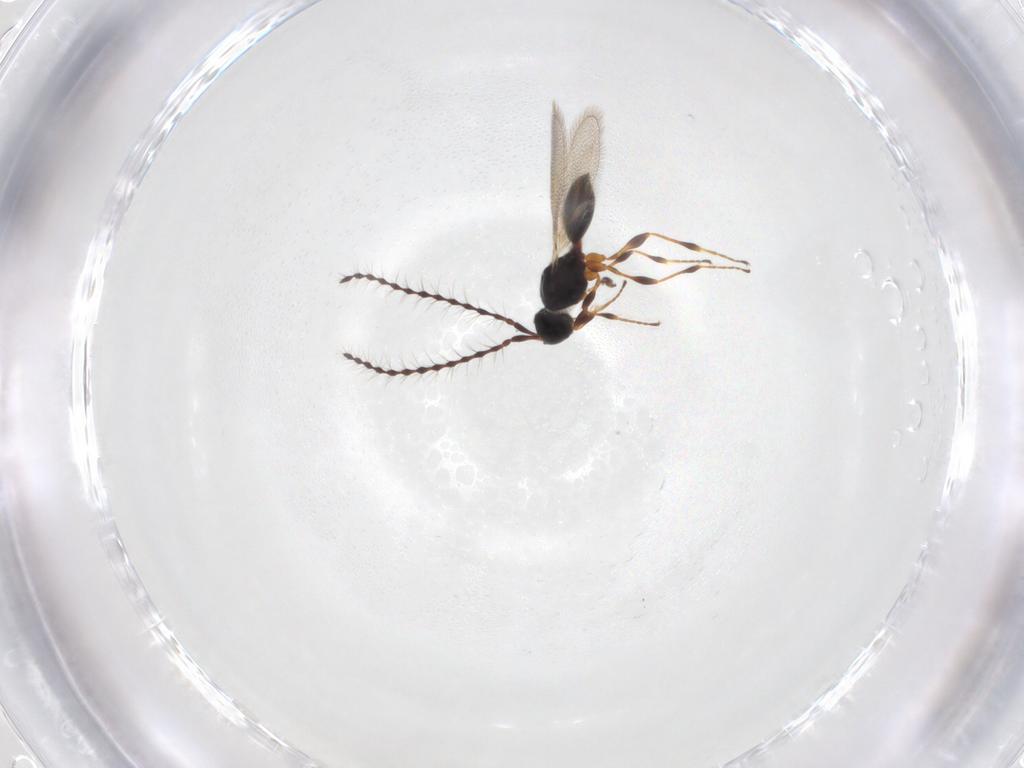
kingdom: Animalia
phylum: Arthropoda
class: Insecta
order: Hymenoptera
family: Diapriidae
